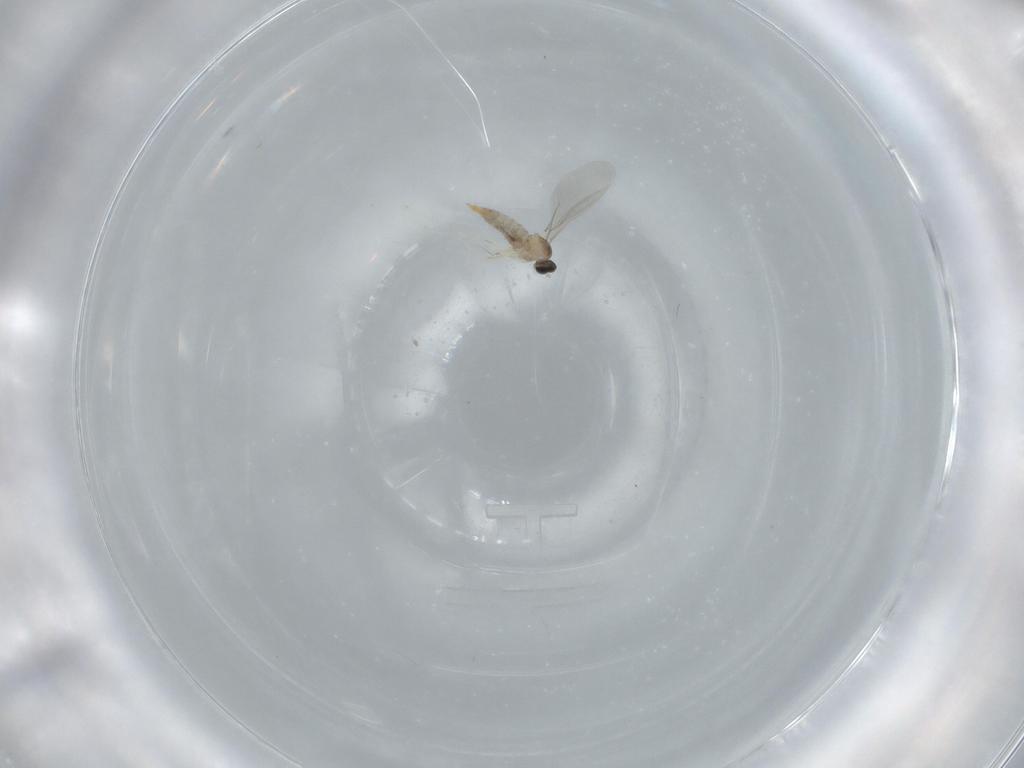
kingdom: Animalia
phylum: Arthropoda
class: Insecta
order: Diptera
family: Cecidomyiidae
